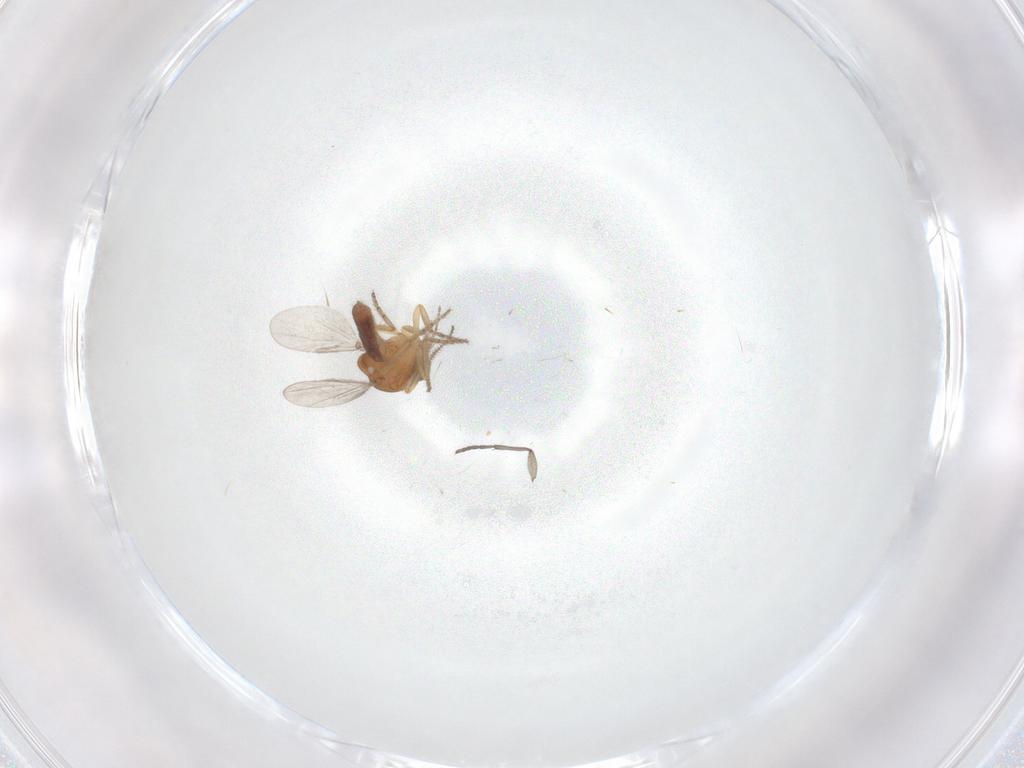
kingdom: Animalia
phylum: Arthropoda
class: Insecta
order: Diptera
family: Ceratopogonidae
